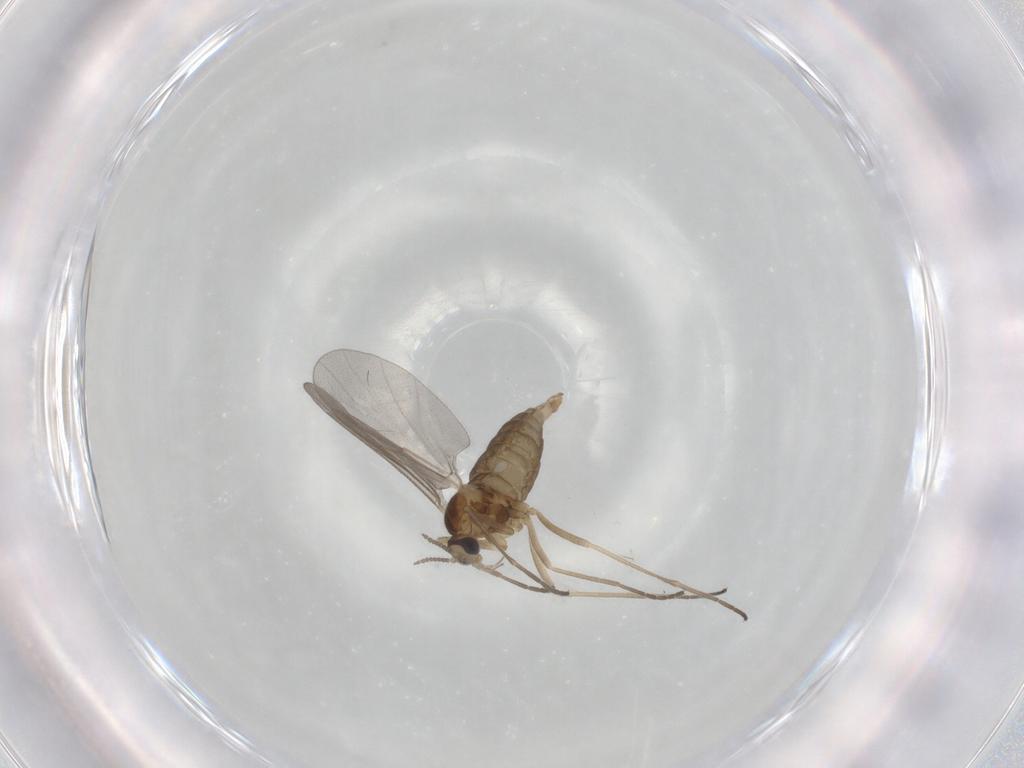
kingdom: Animalia
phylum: Arthropoda
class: Insecta
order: Diptera
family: Cecidomyiidae
